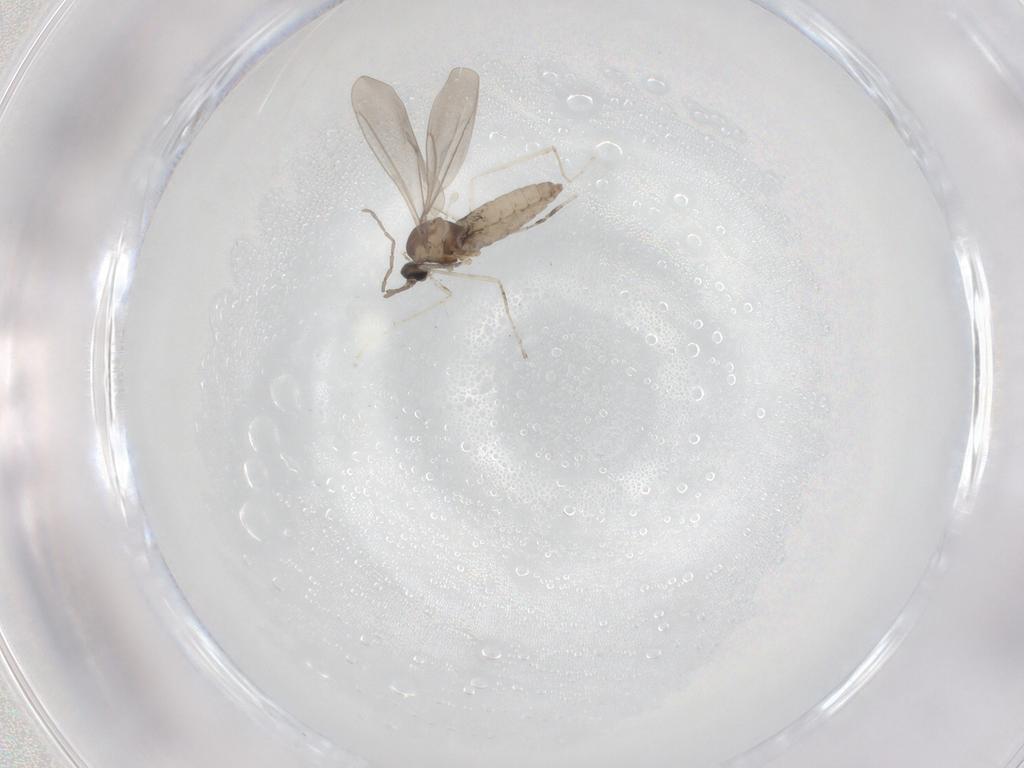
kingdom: Animalia
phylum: Arthropoda
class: Insecta
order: Diptera
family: Cecidomyiidae
